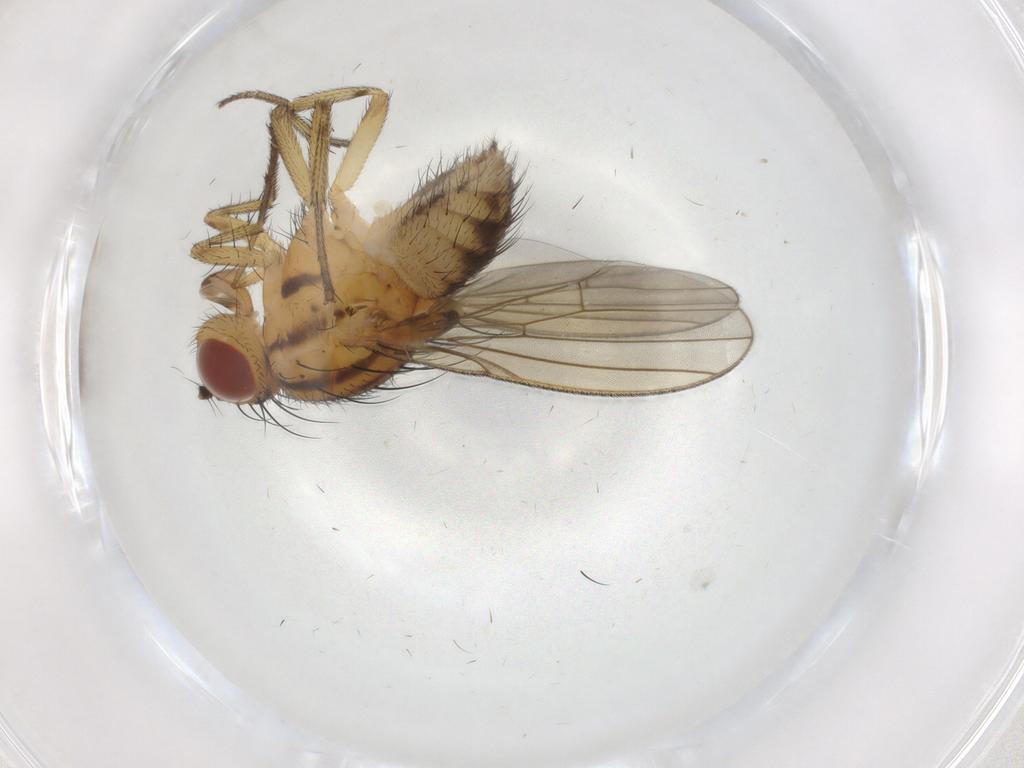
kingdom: Animalia
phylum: Arthropoda
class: Insecta
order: Diptera
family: Dolichopodidae
